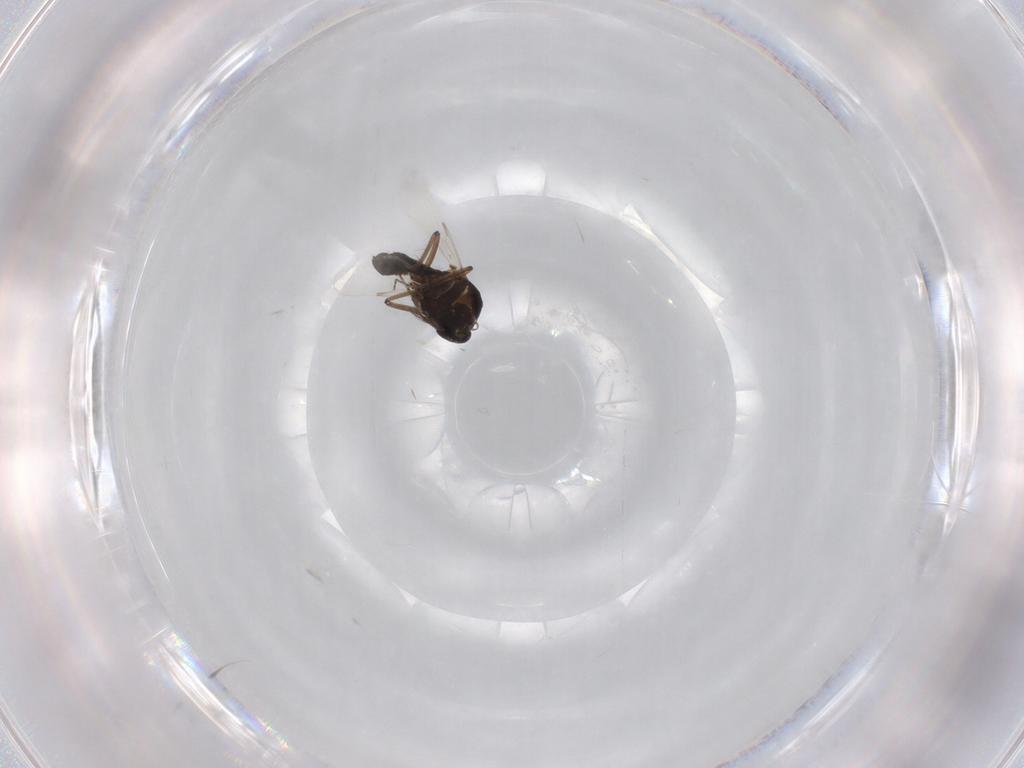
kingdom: Animalia
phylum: Arthropoda
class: Insecta
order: Diptera
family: Ceratopogonidae
